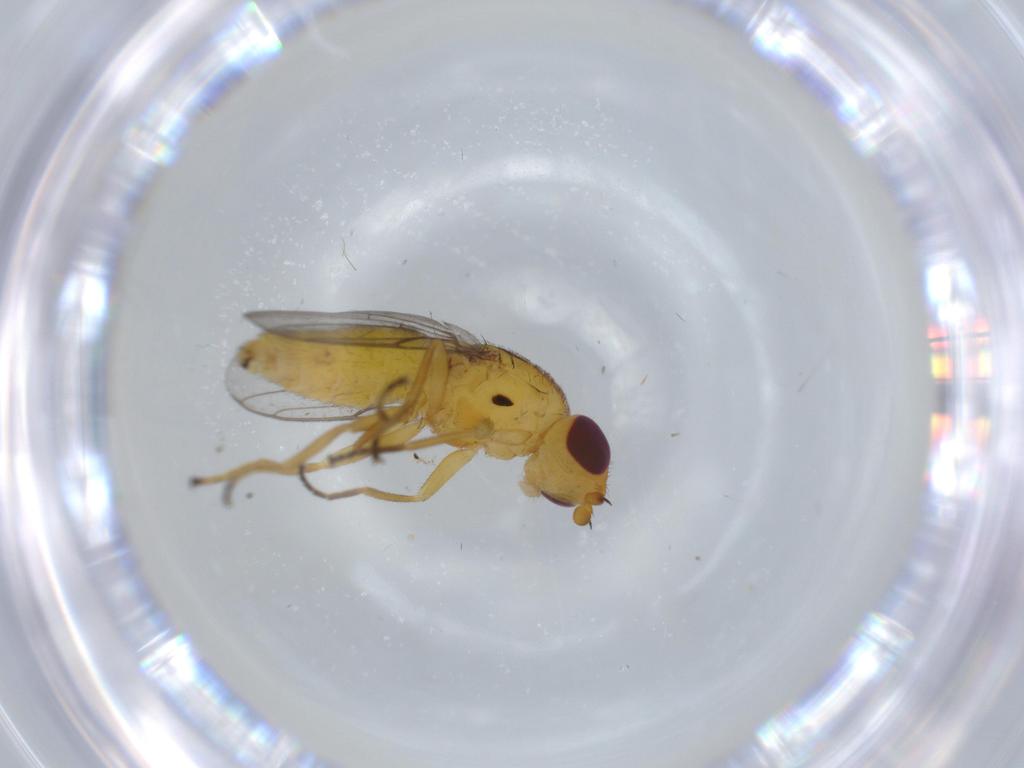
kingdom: Animalia
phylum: Arthropoda
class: Insecta
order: Diptera
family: Chloropidae
